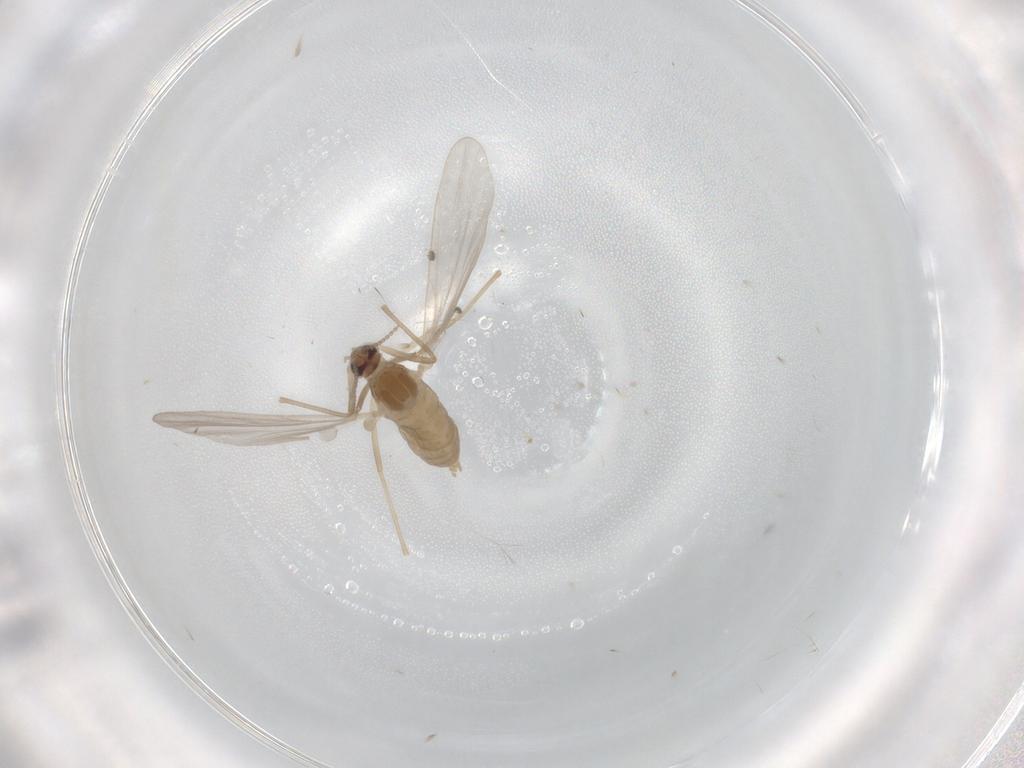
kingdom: Animalia
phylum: Arthropoda
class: Insecta
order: Diptera
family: Cecidomyiidae
